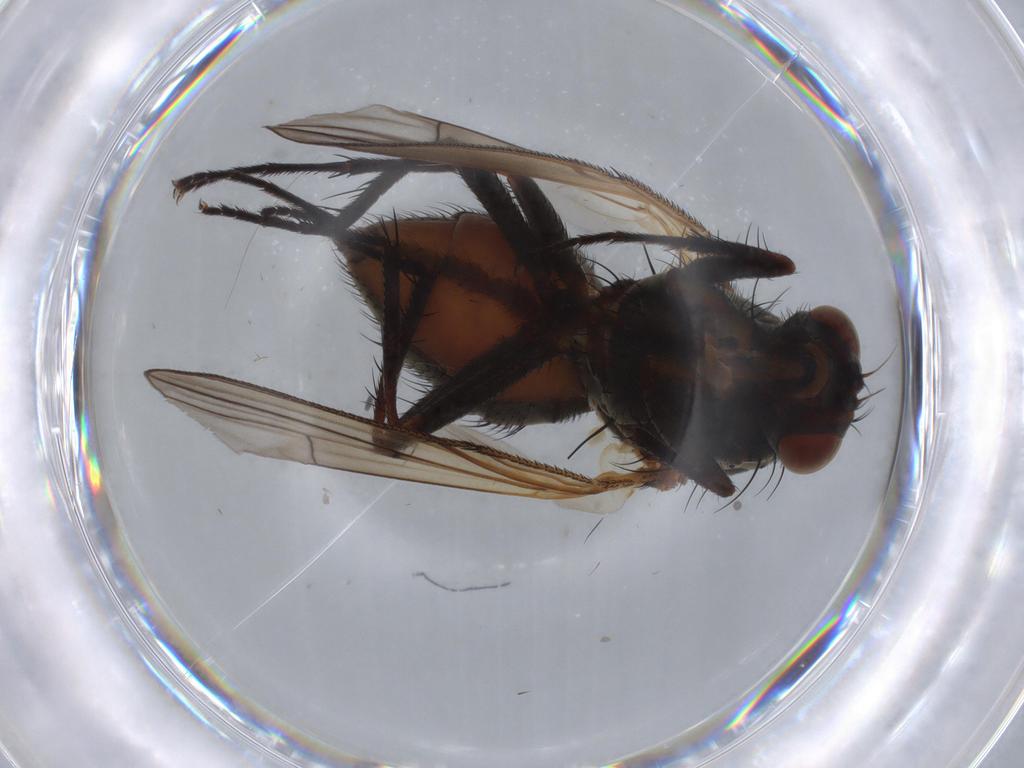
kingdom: Animalia
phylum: Arthropoda
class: Insecta
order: Diptera
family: Anthomyiidae
